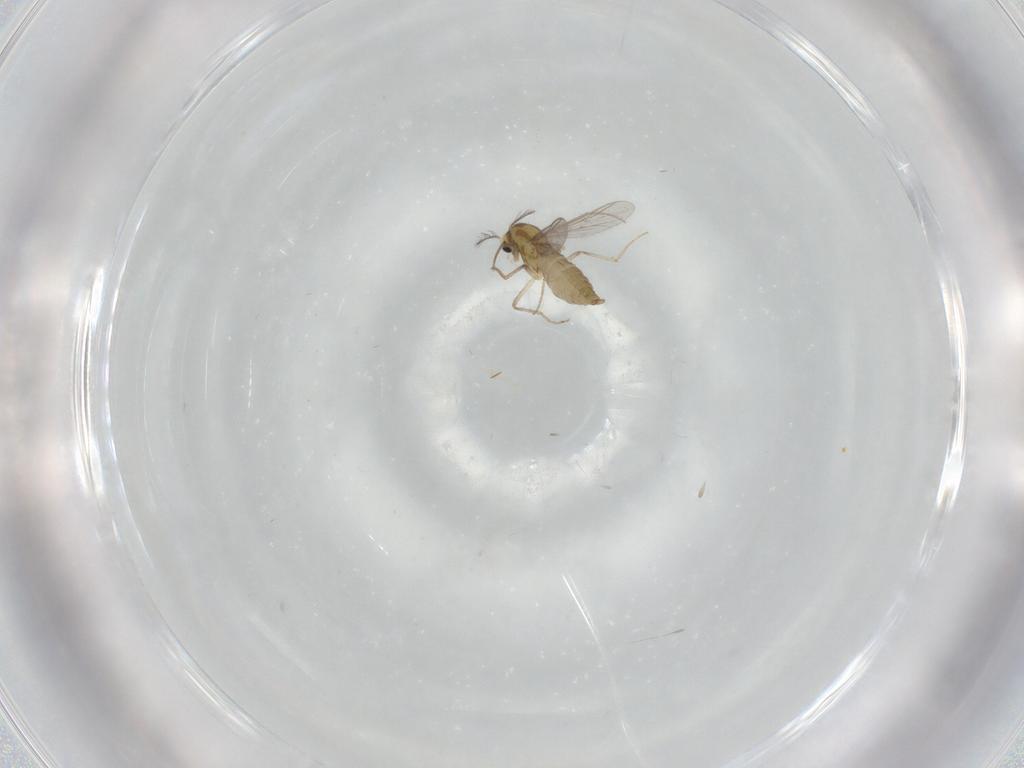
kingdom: Animalia
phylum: Arthropoda
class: Insecta
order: Diptera
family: Chironomidae
